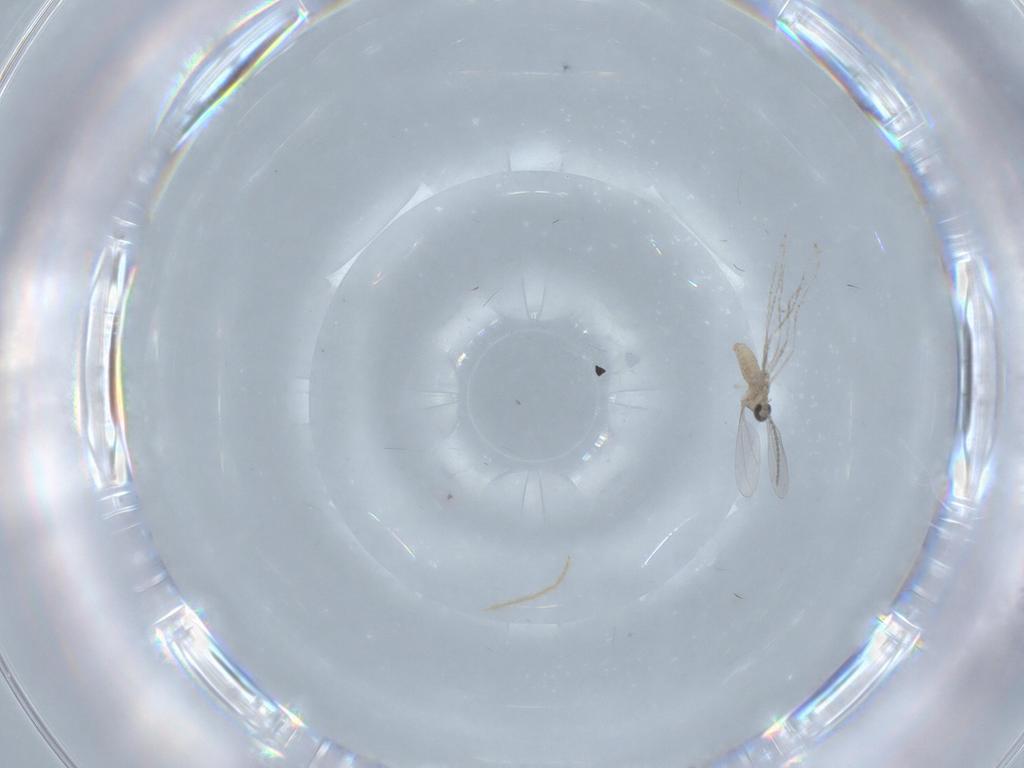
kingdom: Animalia
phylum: Arthropoda
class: Insecta
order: Diptera
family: Chironomidae
